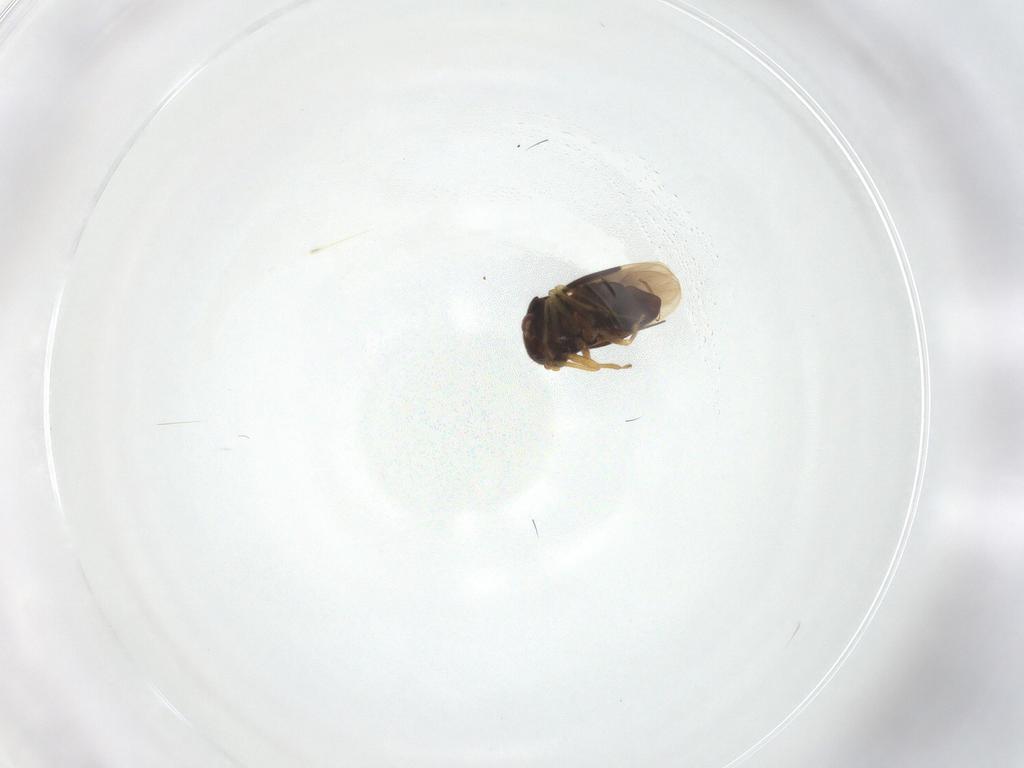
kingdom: Animalia
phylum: Arthropoda
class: Insecta
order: Hemiptera
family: Schizopteridae
